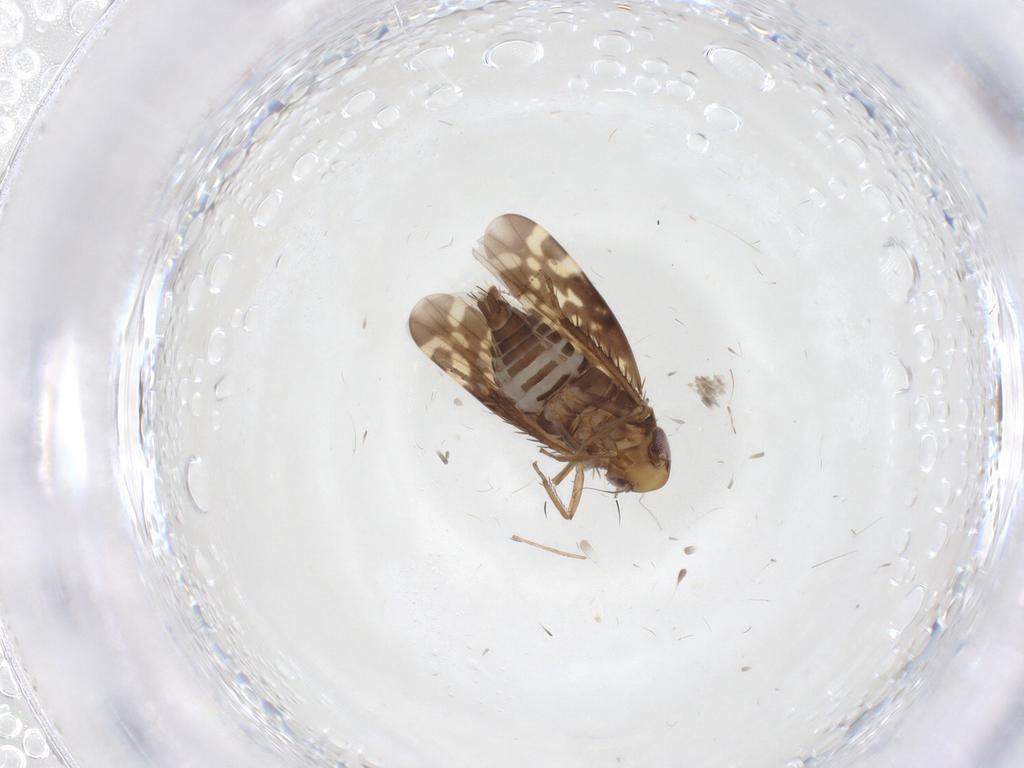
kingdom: Animalia
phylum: Arthropoda
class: Insecta
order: Hemiptera
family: Cicadellidae
